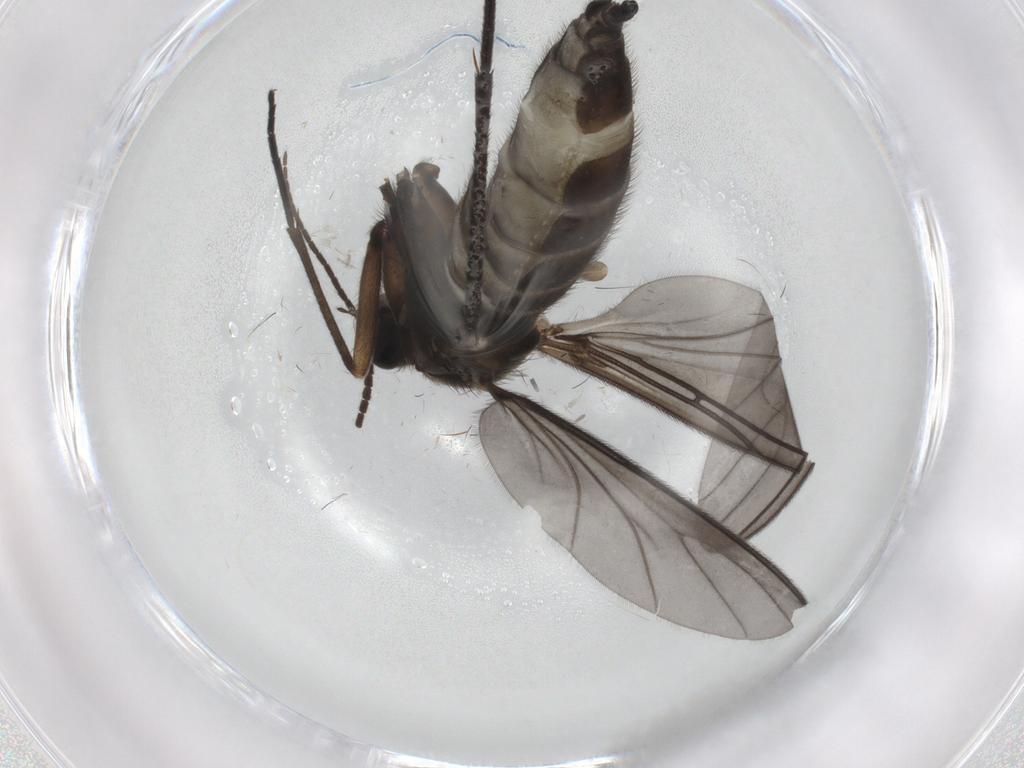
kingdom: Animalia
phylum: Arthropoda
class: Insecta
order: Diptera
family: Sciaridae
